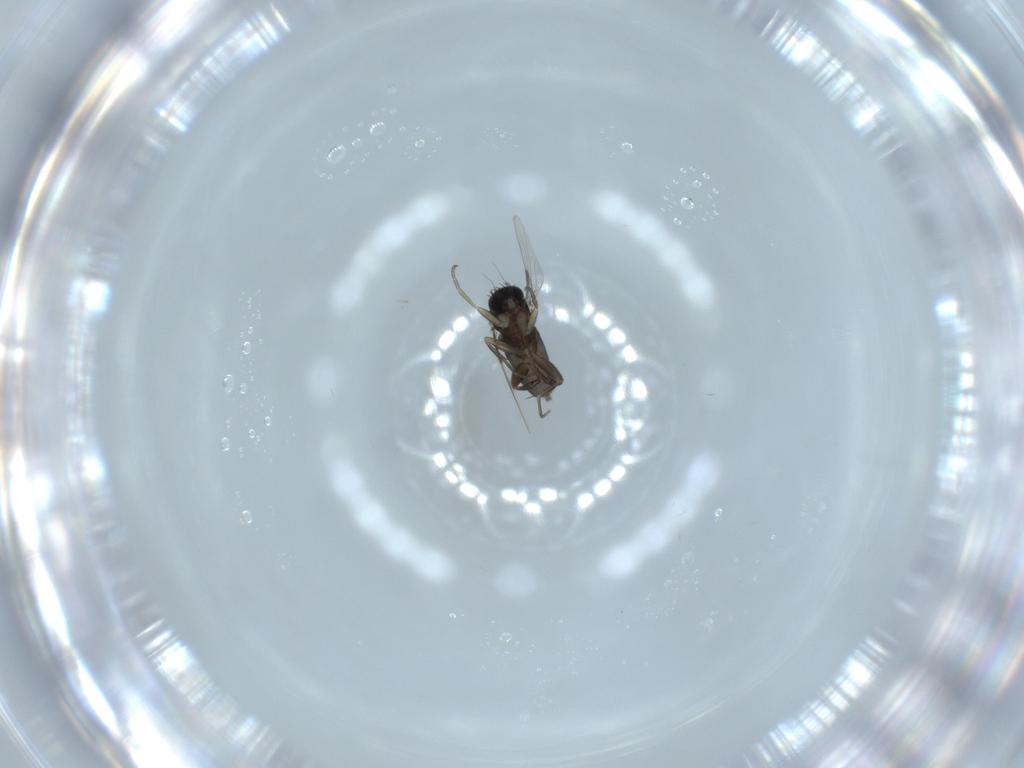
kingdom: Animalia
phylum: Arthropoda
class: Insecta
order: Diptera
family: Phoridae
